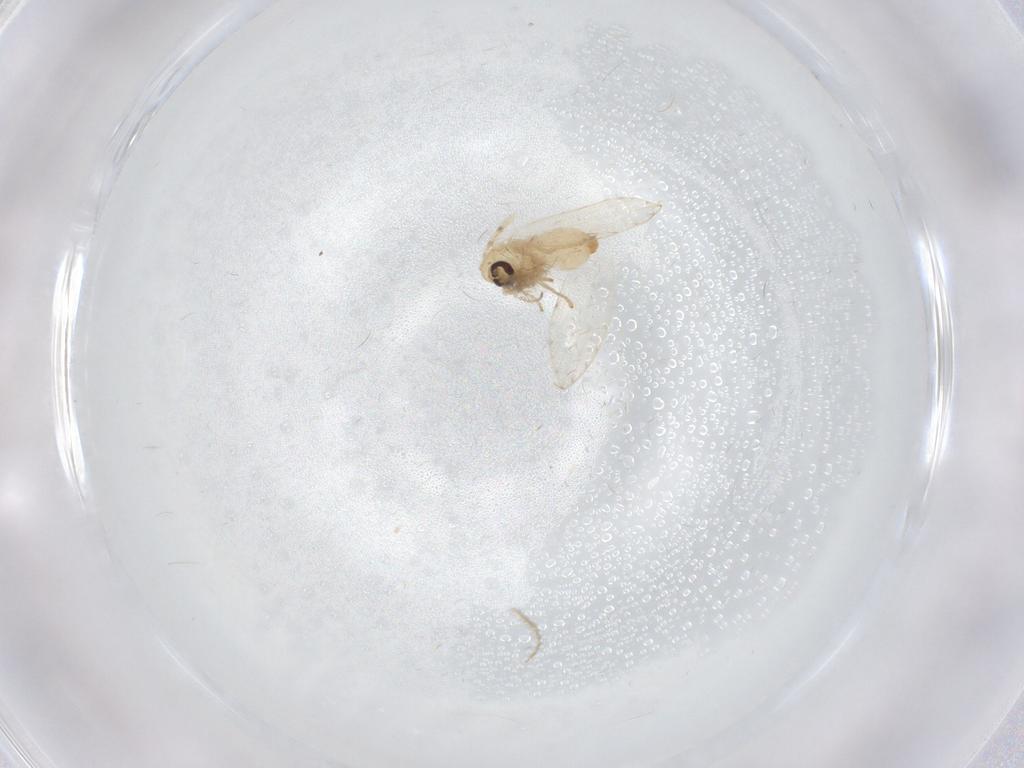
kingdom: Animalia
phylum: Arthropoda
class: Insecta
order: Diptera
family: Psychodidae
